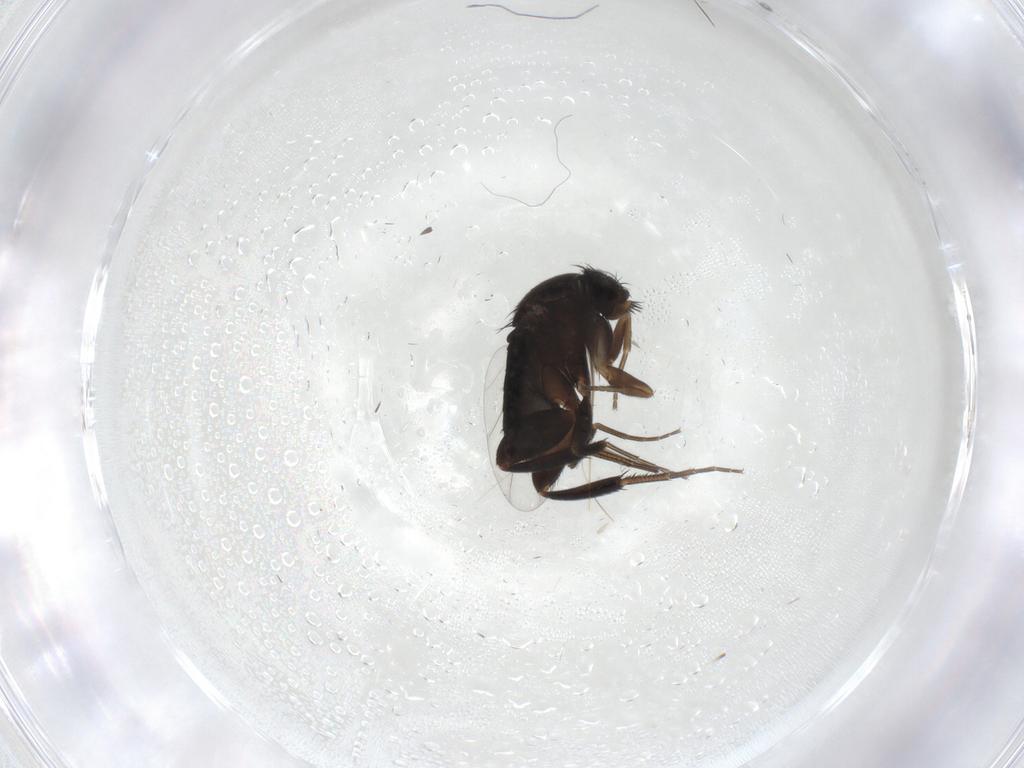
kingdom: Animalia
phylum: Arthropoda
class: Insecta
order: Diptera
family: Phoridae
